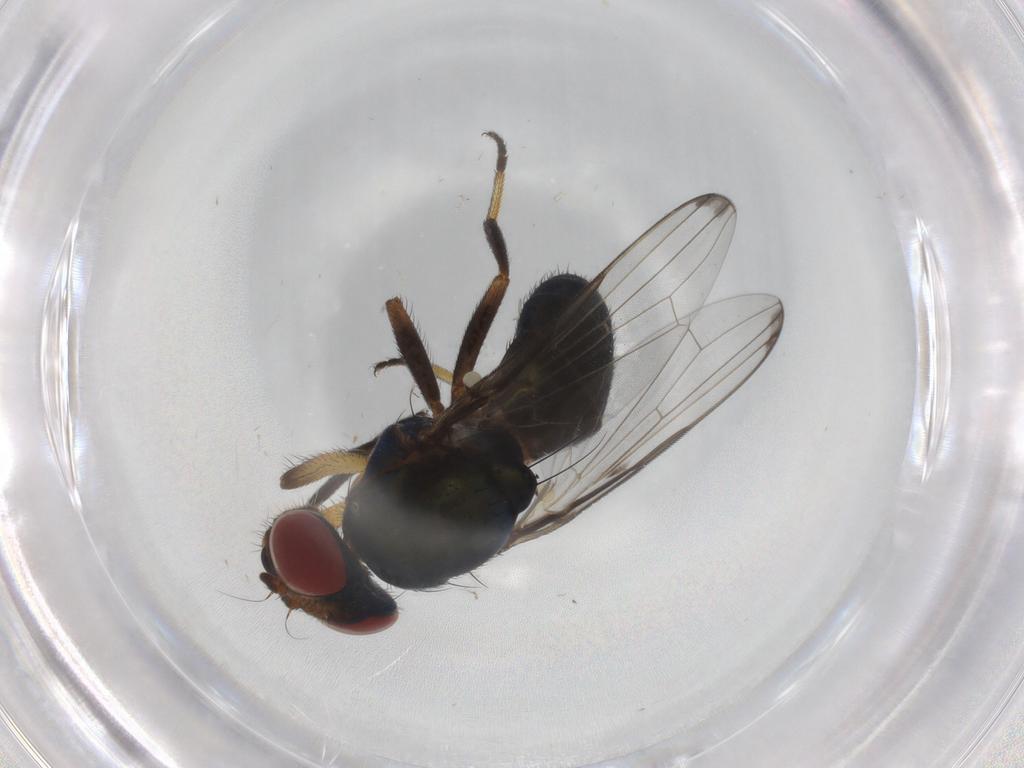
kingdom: Animalia
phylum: Arthropoda
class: Insecta
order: Diptera
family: Ulidiidae
